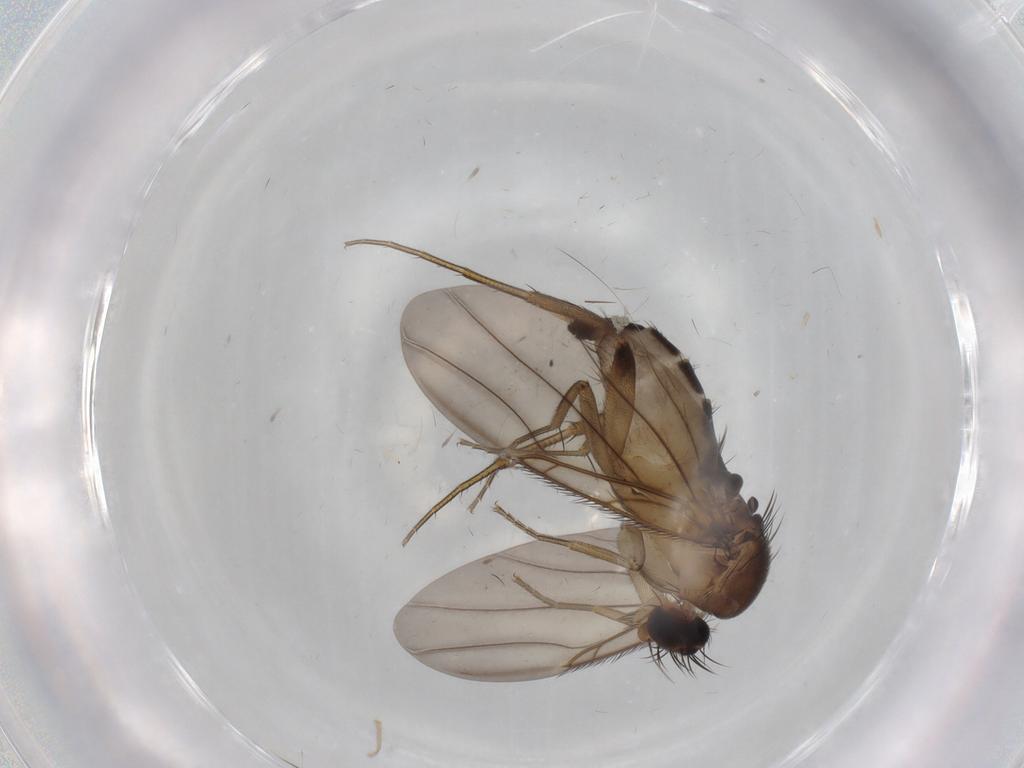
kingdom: Animalia
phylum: Arthropoda
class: Insecta
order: Diptera
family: Phoridae
